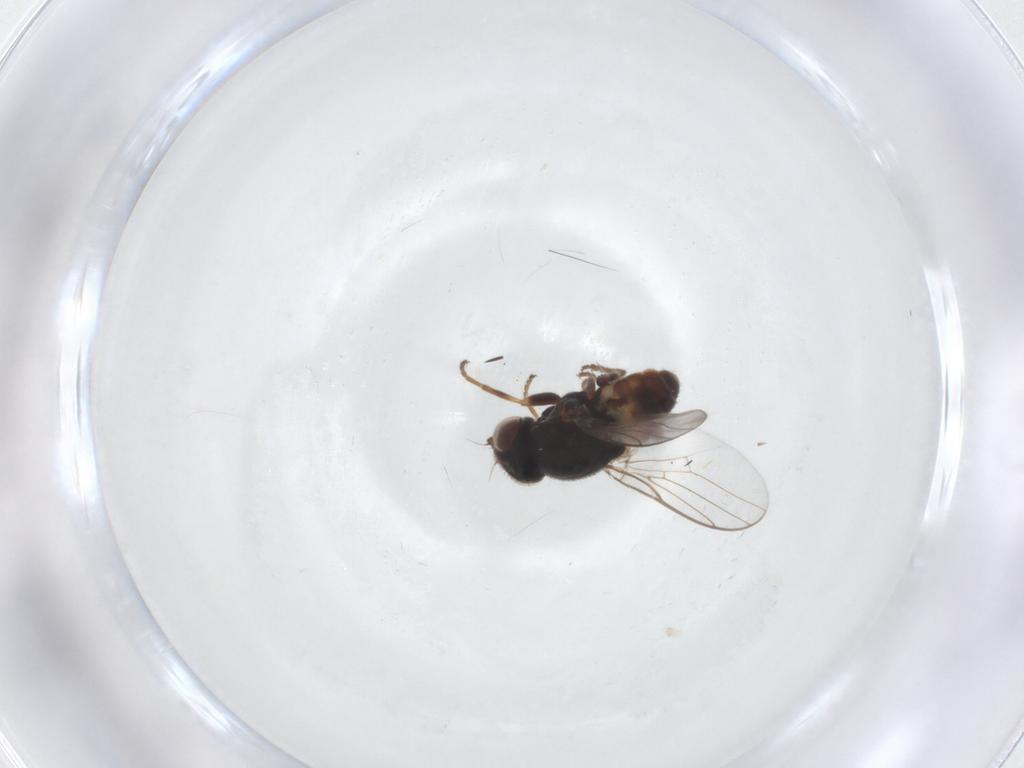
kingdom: Animalia
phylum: Arthropoda
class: Insecta
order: Diptera
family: Chloropidae
